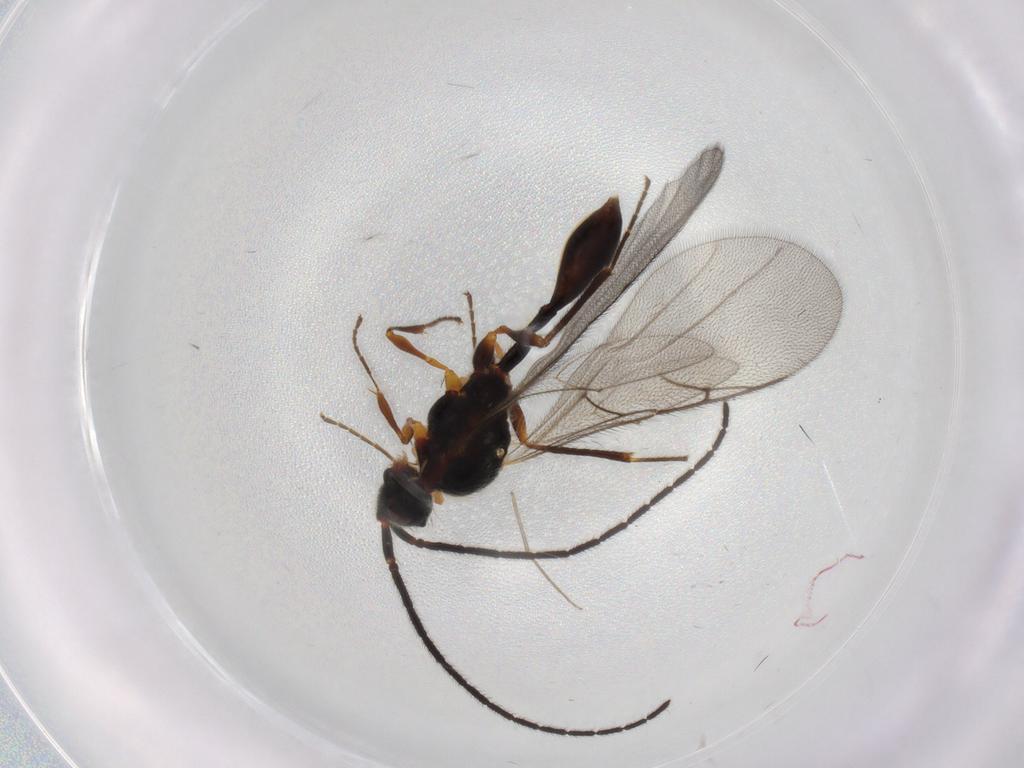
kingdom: Animalia
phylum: Arthropoda
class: Insecta
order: Hymenoptera
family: Diapriidae
